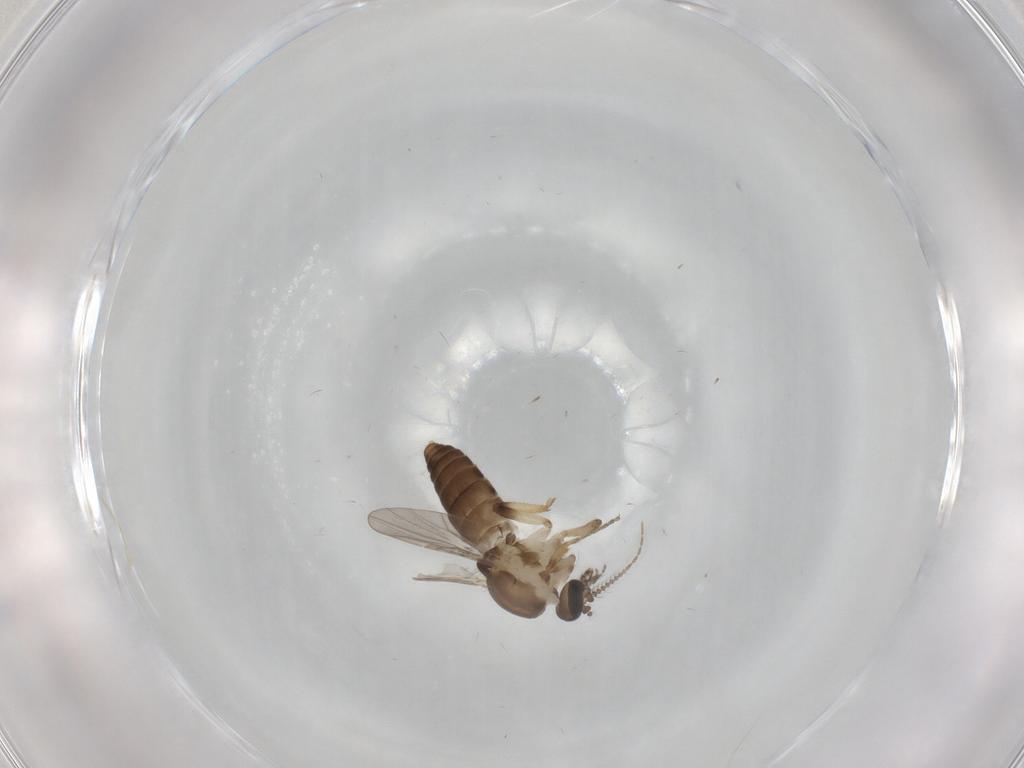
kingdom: Animalia
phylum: Arthropoda
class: Insecta
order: Diptera
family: Ceratopogonidae
